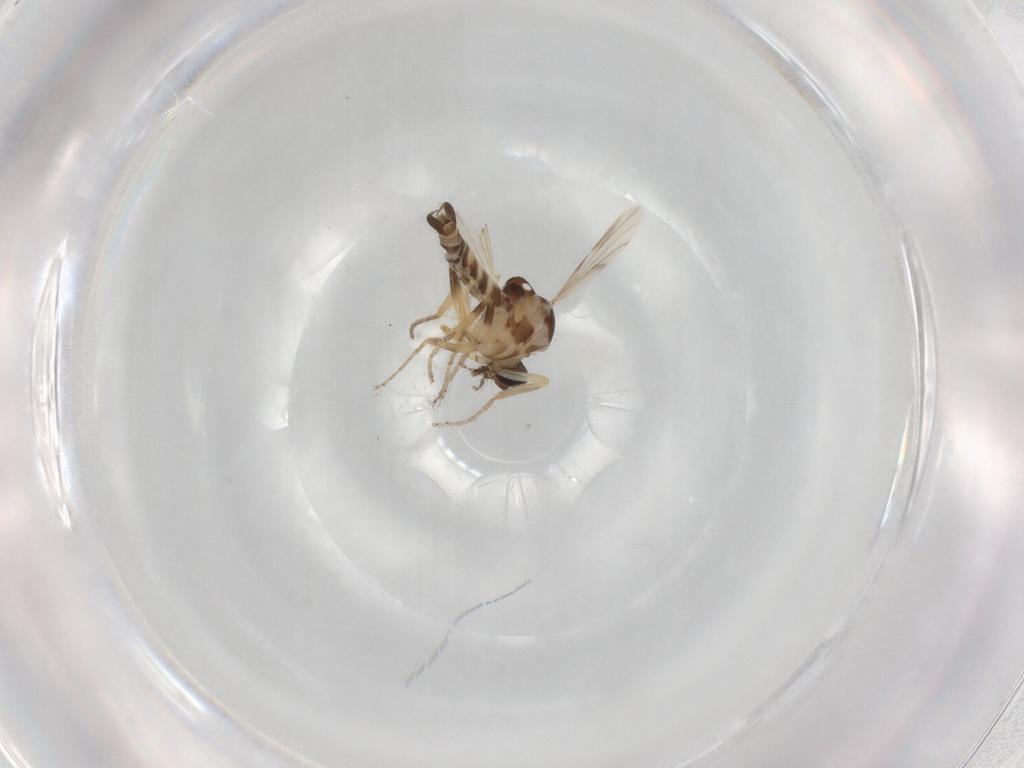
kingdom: Animalia
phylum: Arthropoda
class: Insecta
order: Diptera
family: Ceratopogonidae
